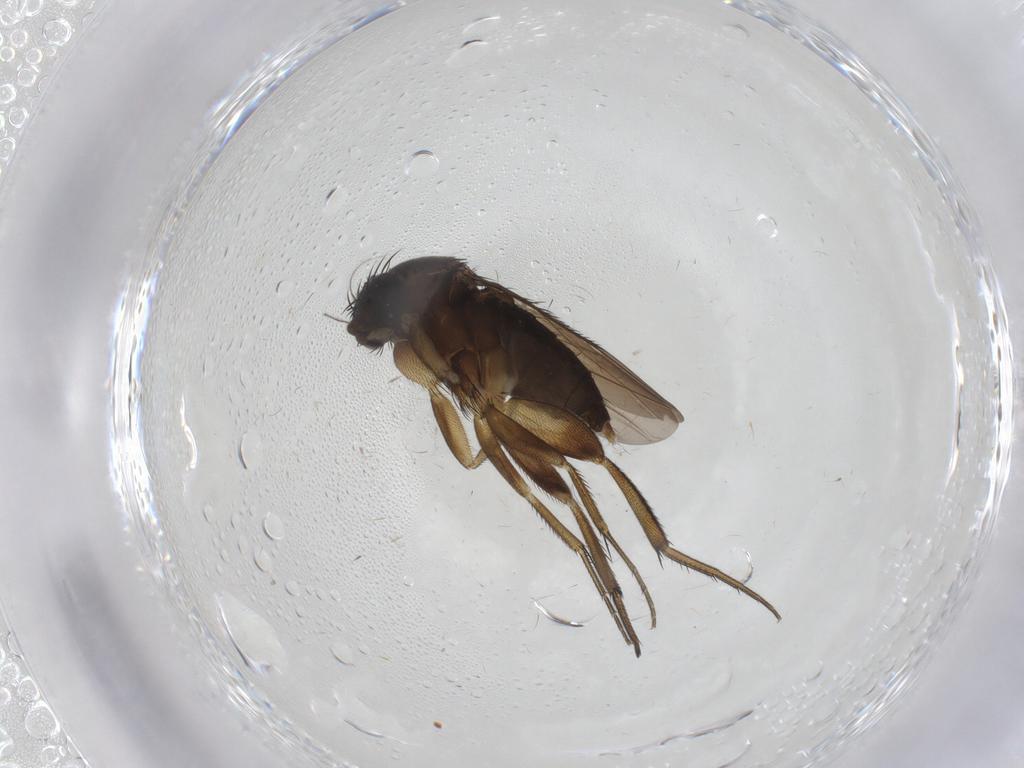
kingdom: Animalia
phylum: Arthropoda
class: Insecta
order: Diptera
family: Phoridae
